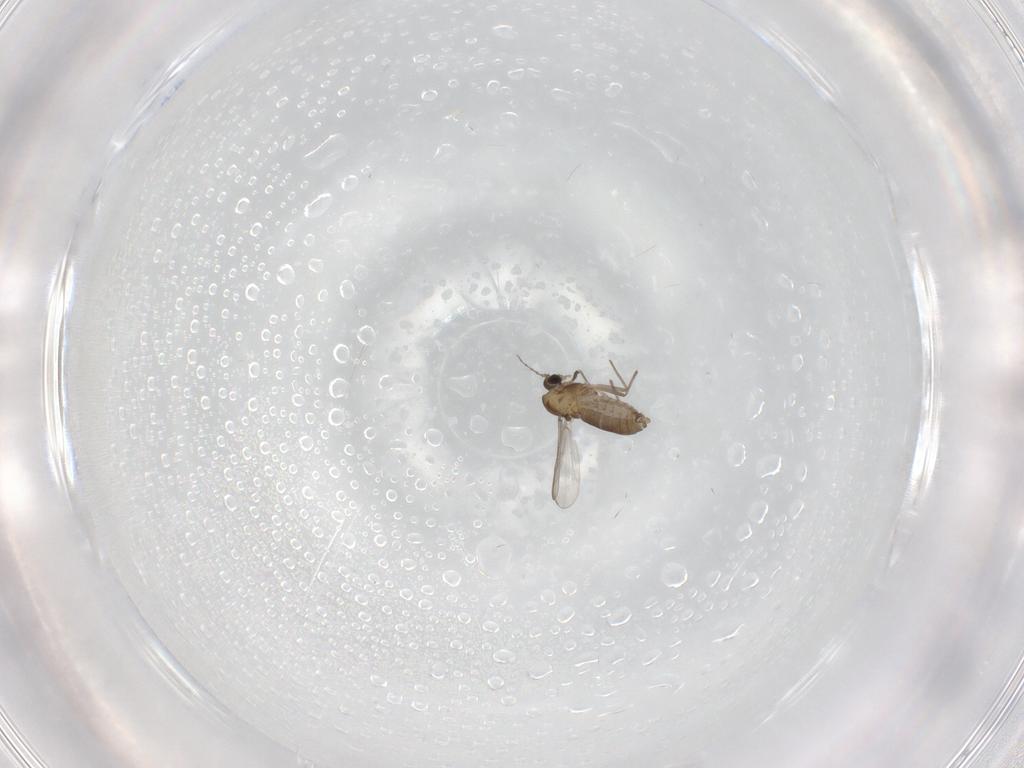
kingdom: Animalia
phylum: Arthropoda
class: Insecta
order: Diptera
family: Chironomidae
